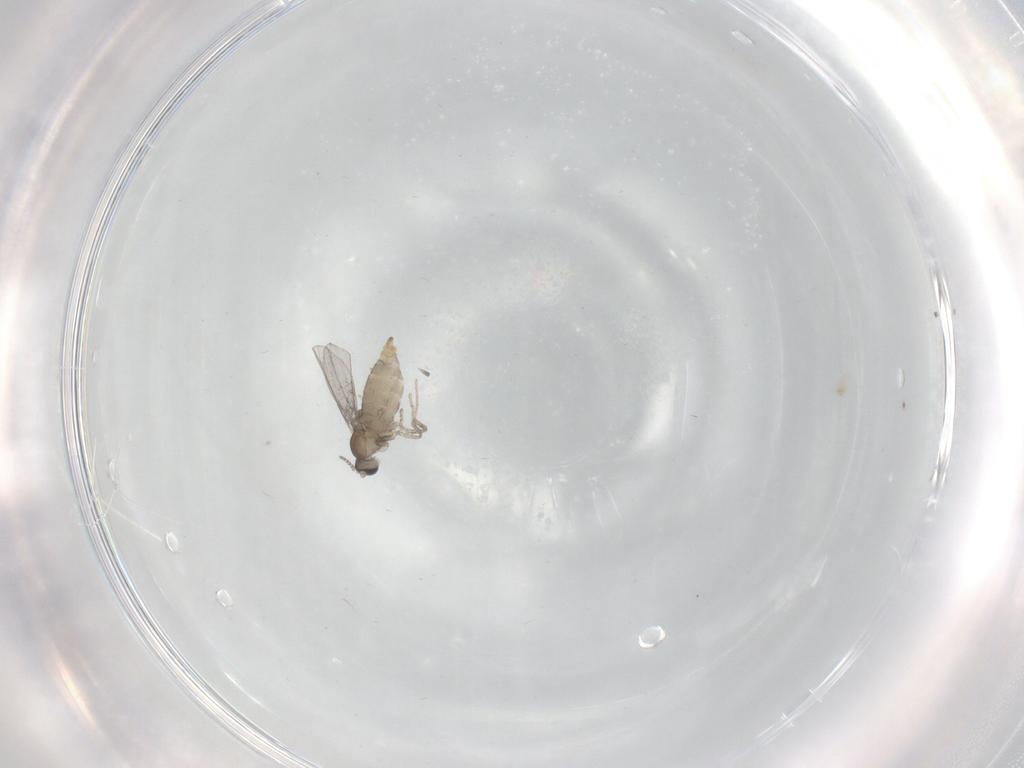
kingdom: Animalia
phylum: Arthropoda
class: Insecta
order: Diptera
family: Cecidomyiidae
